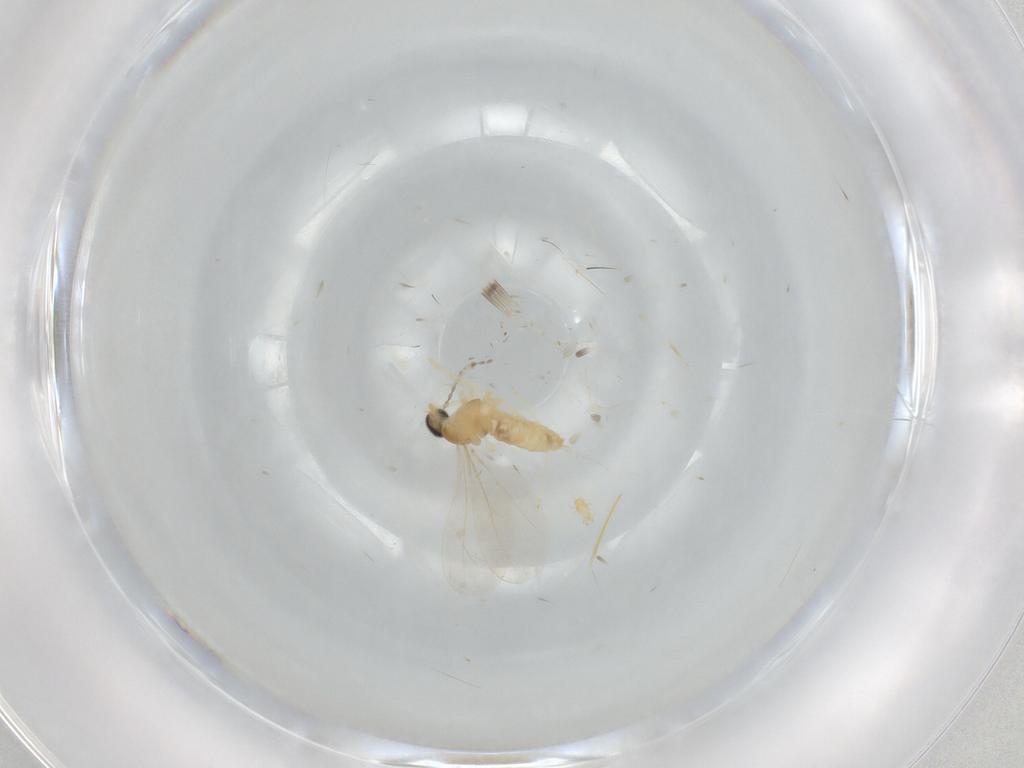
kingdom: Animalia
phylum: Arthropoda
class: Insecta
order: Diptera
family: Cecidomyiidae
